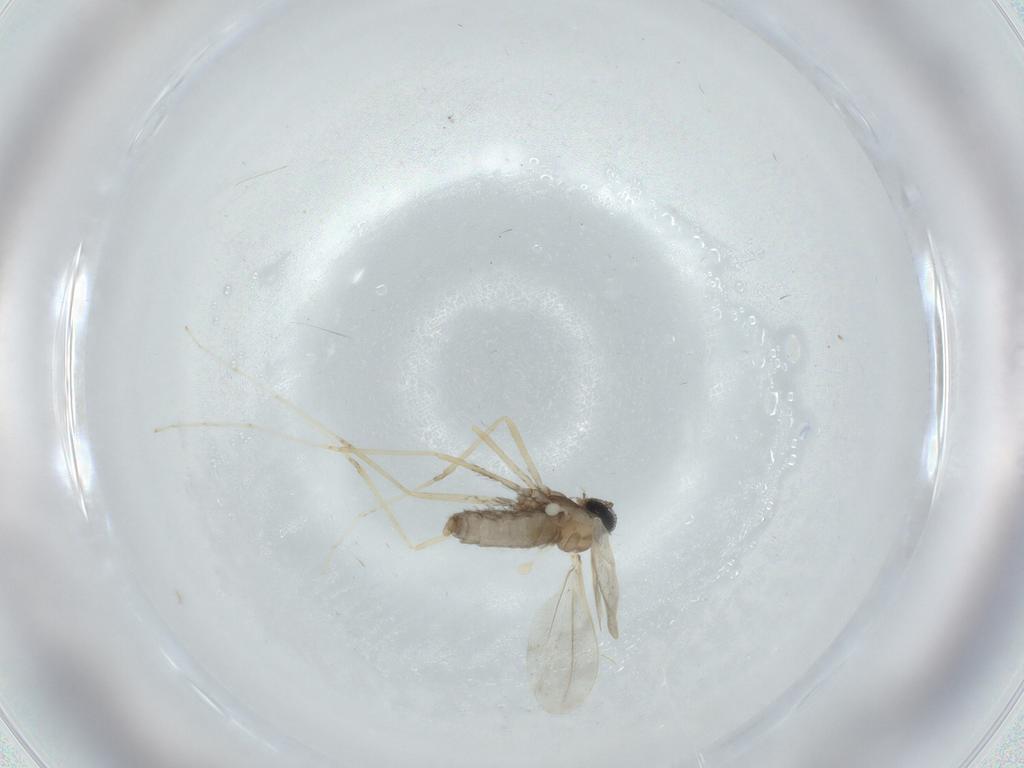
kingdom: Animalia
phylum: Arthropoda
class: Insecta
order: Diptera
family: Cecidomyiidae
